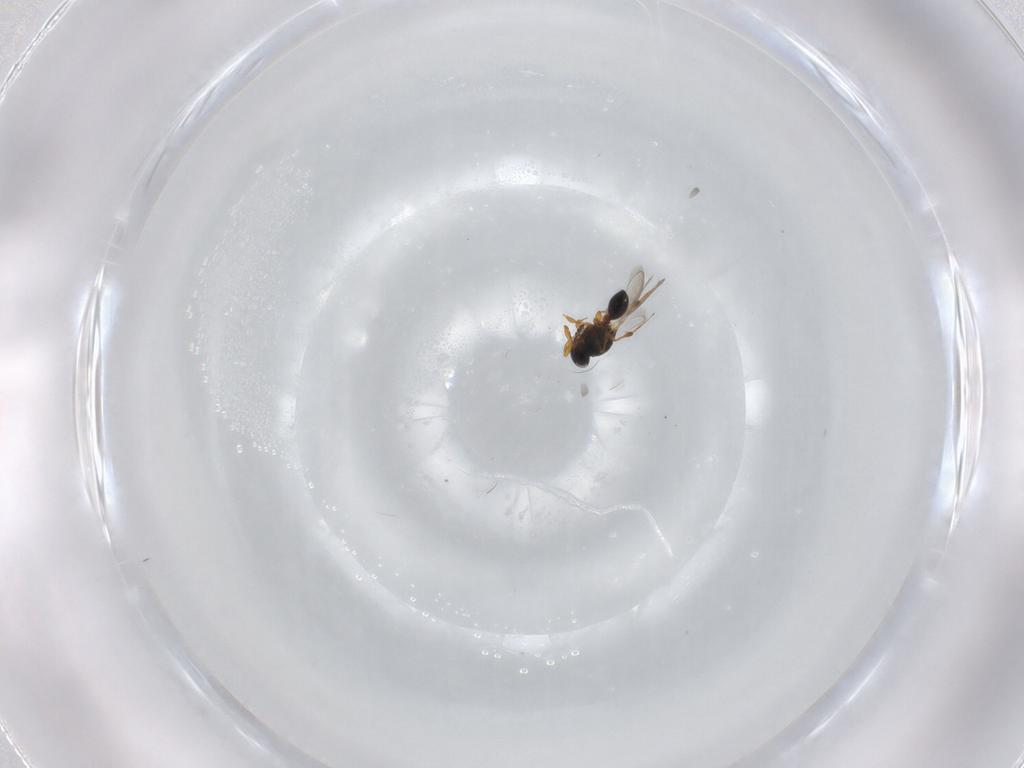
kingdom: Animalia
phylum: Arthropoda
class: Insecta
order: Hymenoptera
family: Platygastridae
